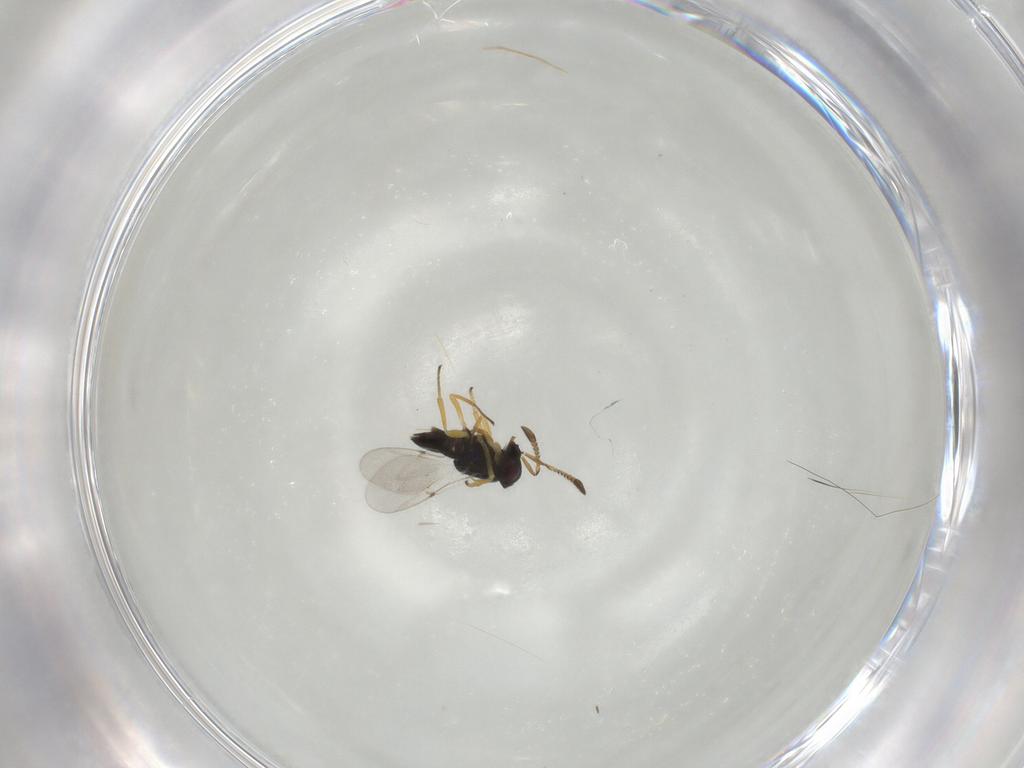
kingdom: Animalia
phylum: Arthropoda
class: Insecta
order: Hymenoptera
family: Encyrtidae
